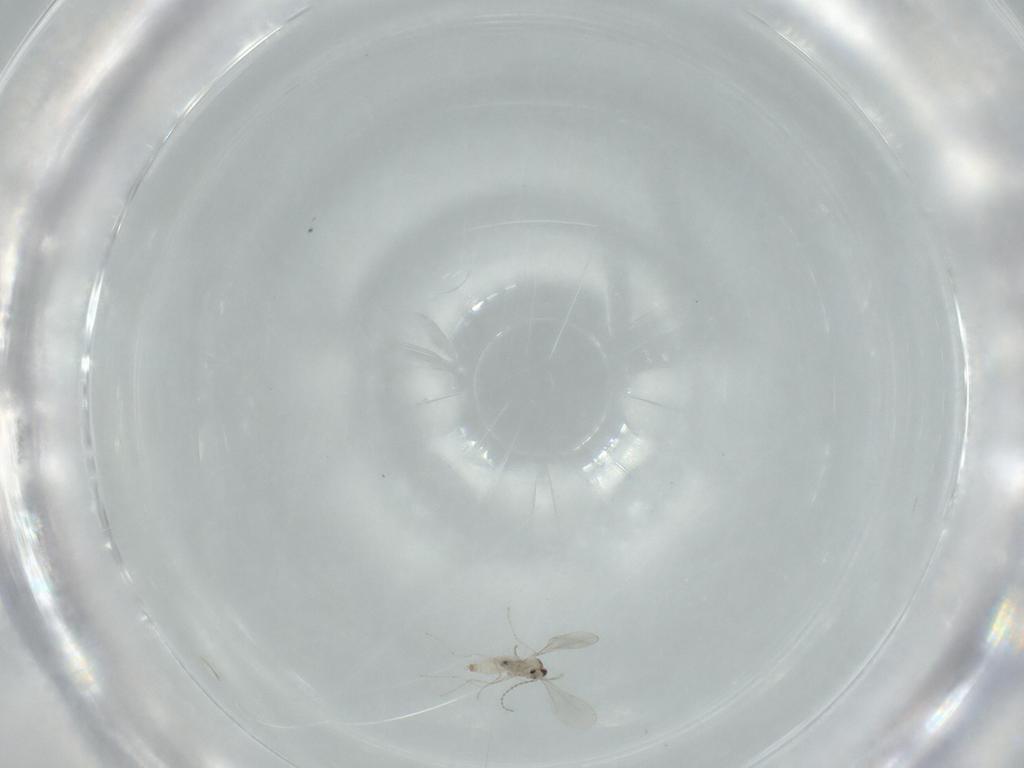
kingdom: Animalia
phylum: Arthropoda
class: Insecta
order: Diptera
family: Cecidomyiidae
